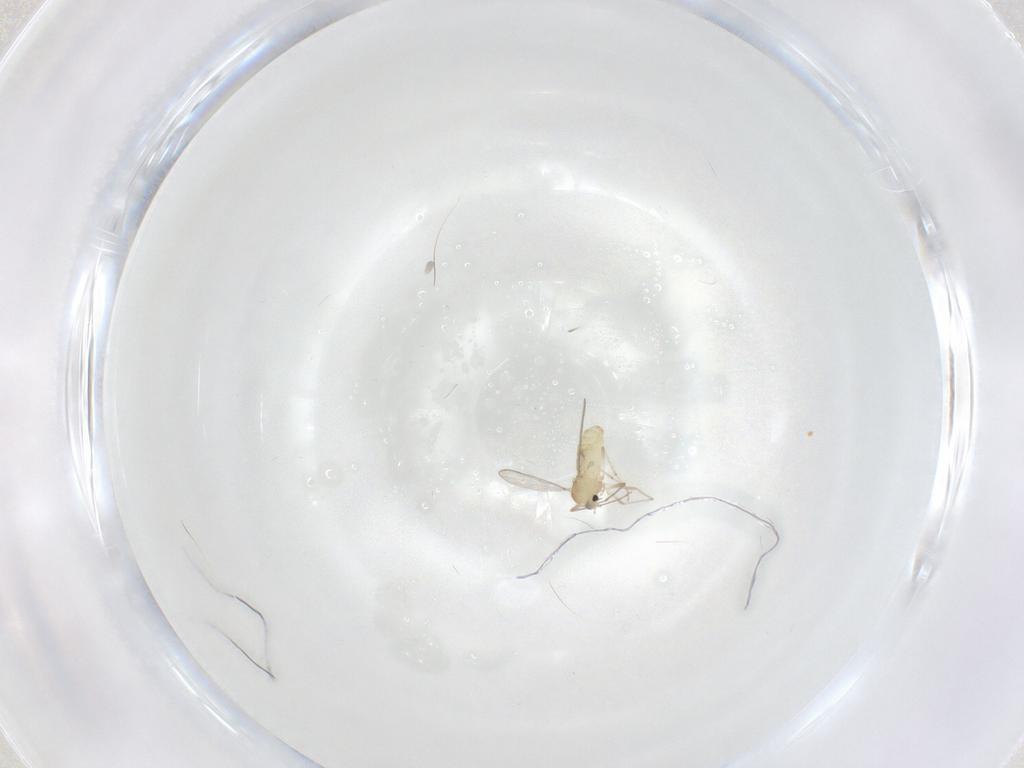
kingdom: Animalia
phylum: Arthropoda
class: Insecta
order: Diptera
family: Chironomidae
